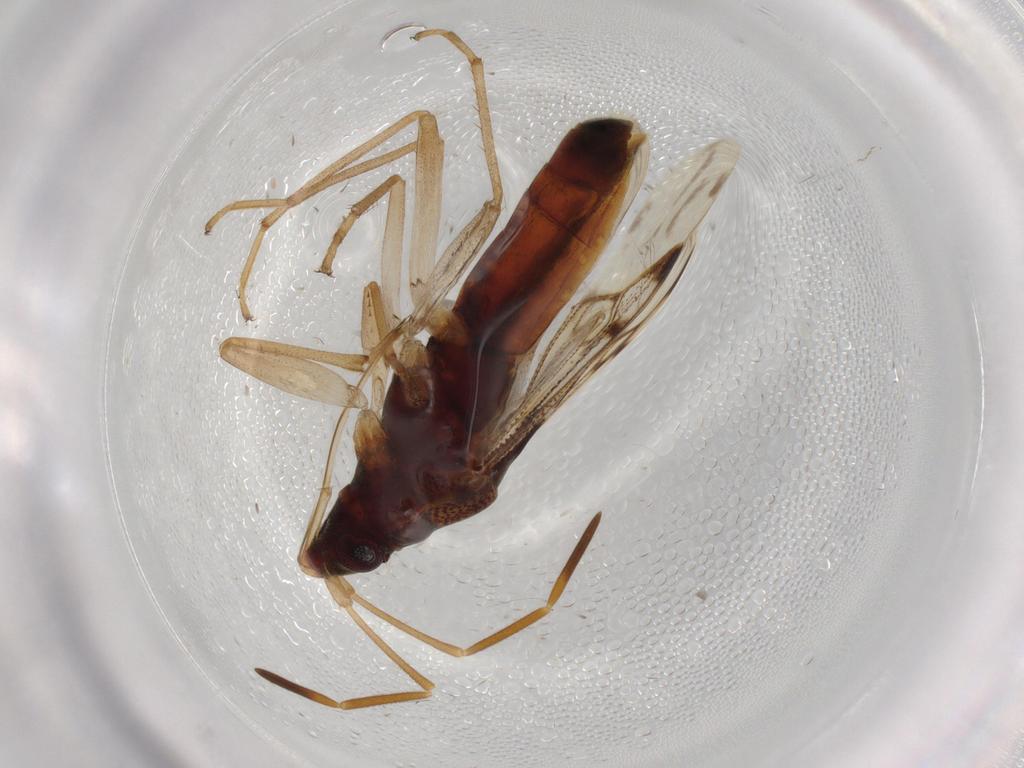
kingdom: Animalia
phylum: Arthropoda
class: Insecta
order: Hemiptera
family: Rhyparochromidae
